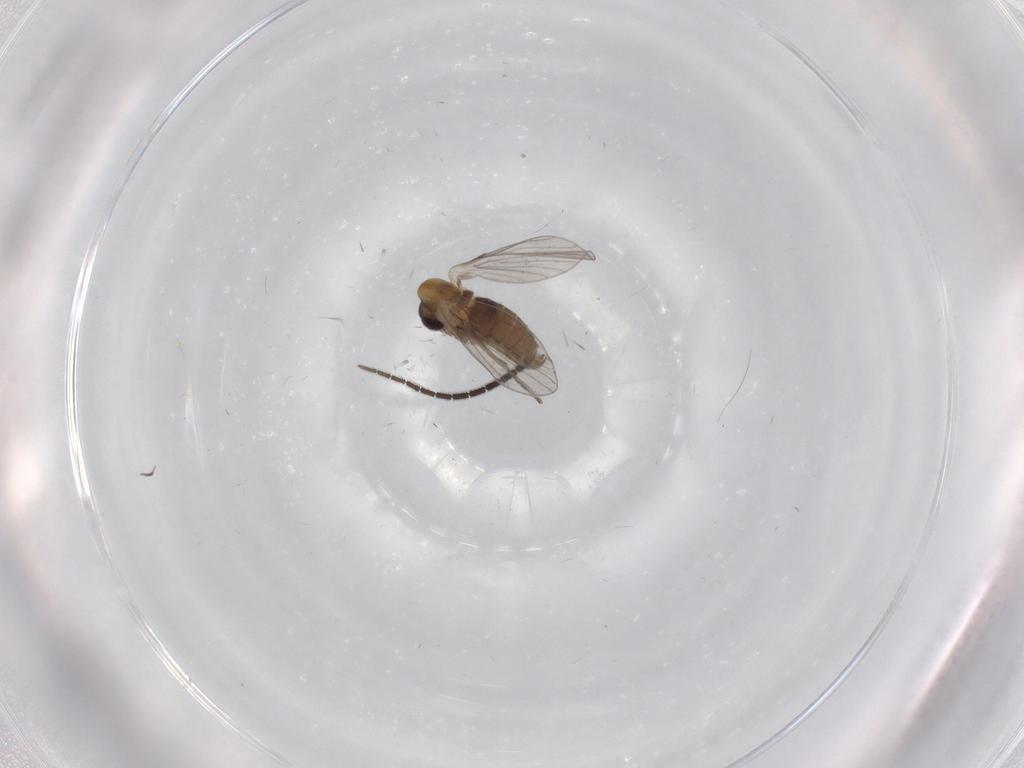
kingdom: Animalia
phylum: Arthropoda
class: Insecta
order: Diptera
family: Sciaridae
